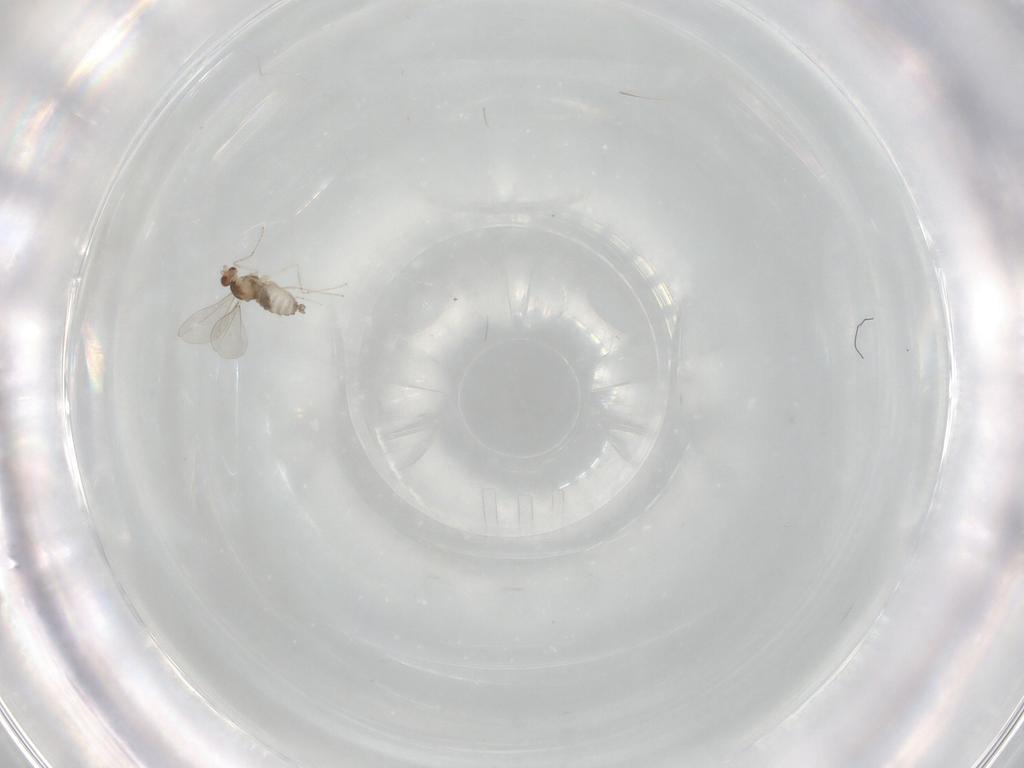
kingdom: Animalia
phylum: Arthropoda
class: Insecta
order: Diptera
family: Cecidomyiidae
